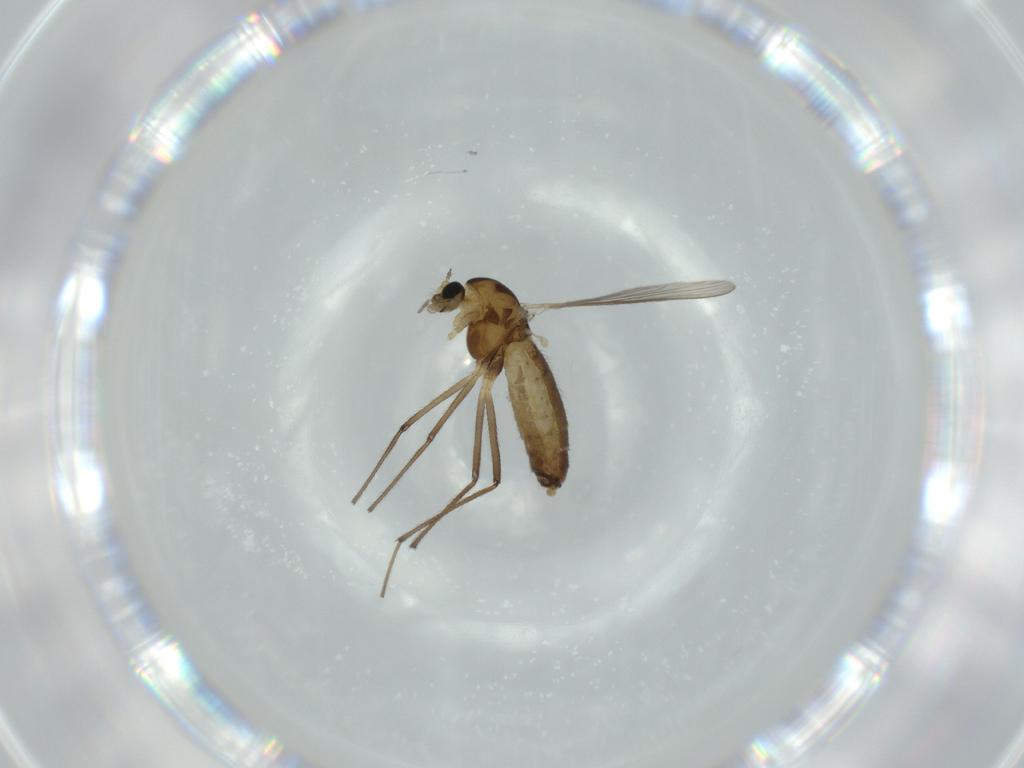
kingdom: Animalia
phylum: Arthropoda
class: Insecta
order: Diptera
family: Chironomidae
